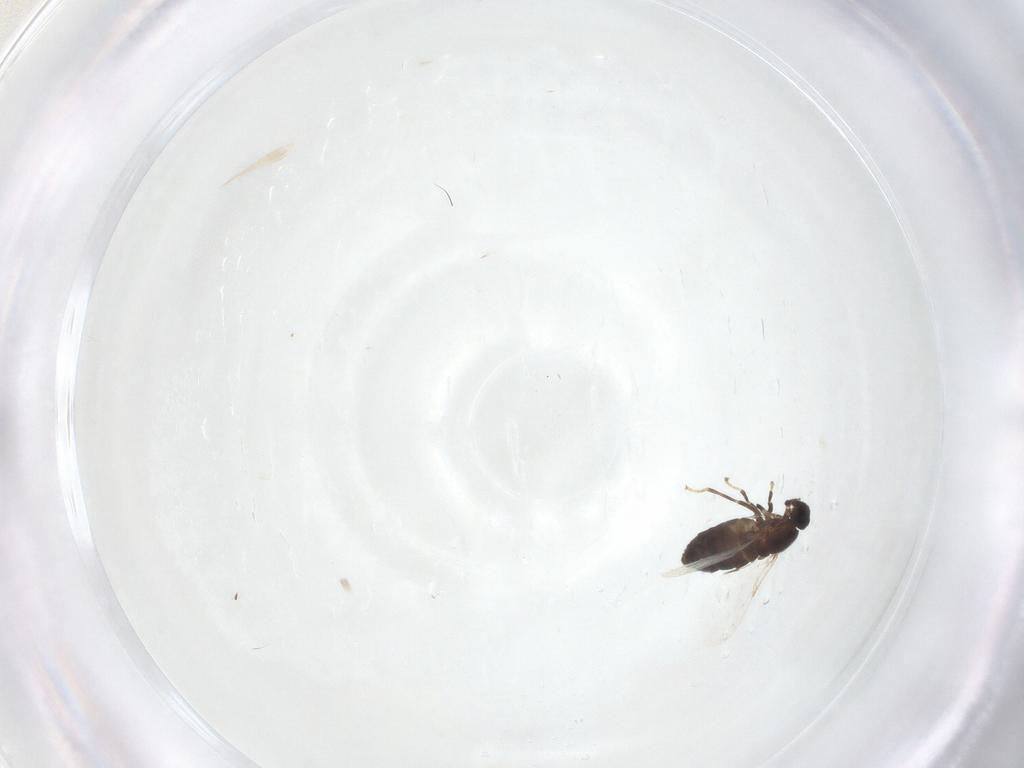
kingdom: Animalia
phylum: Arthropoda
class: Insecta
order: Diptera
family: Scatopsidae
